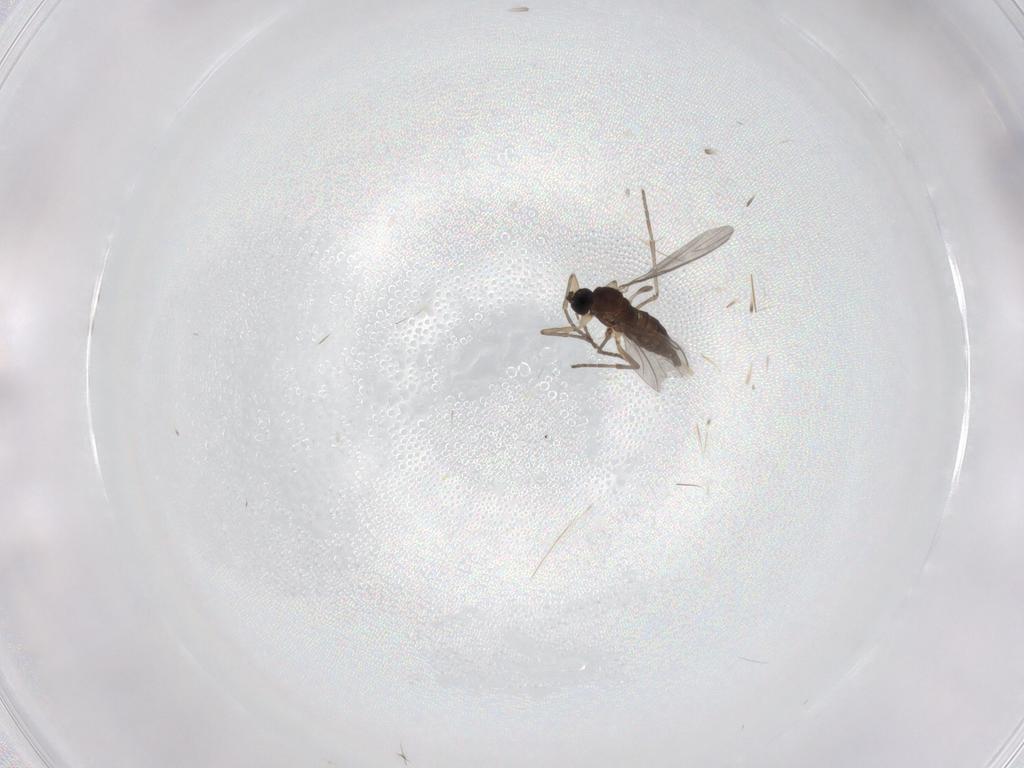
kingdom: Animalia
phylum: Arthropoda
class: Insecta
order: Diptera
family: Sciaridae
